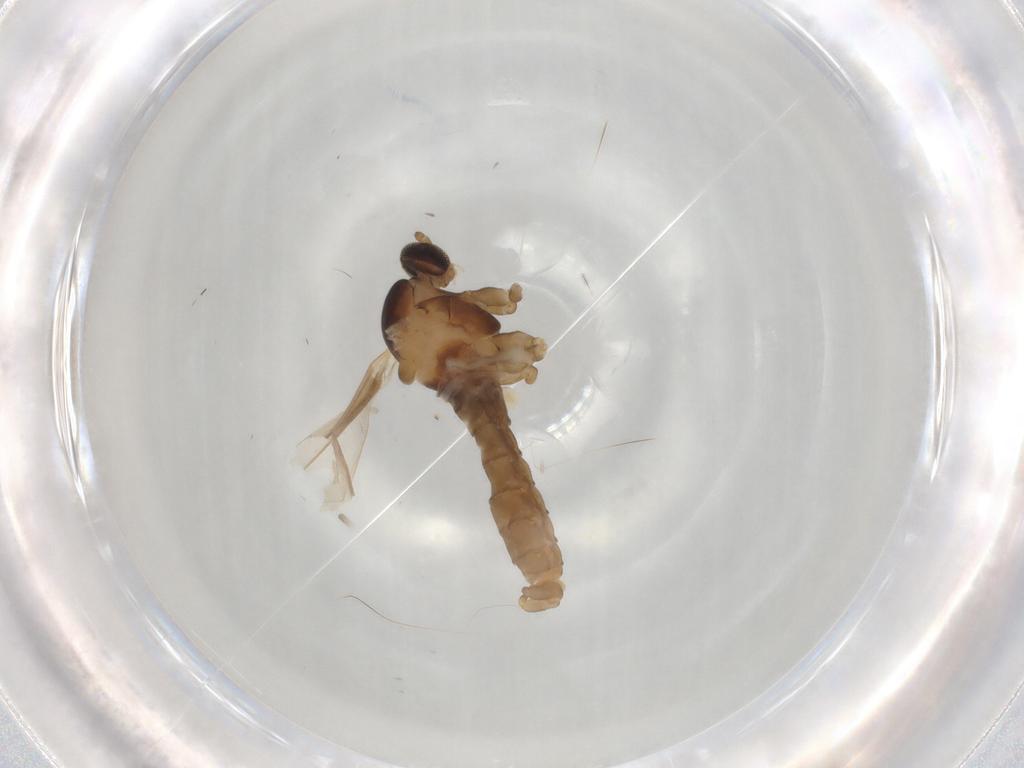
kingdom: Animalia
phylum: Arthropoda
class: Insecta
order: Diptera
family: Cecidomyiidae
